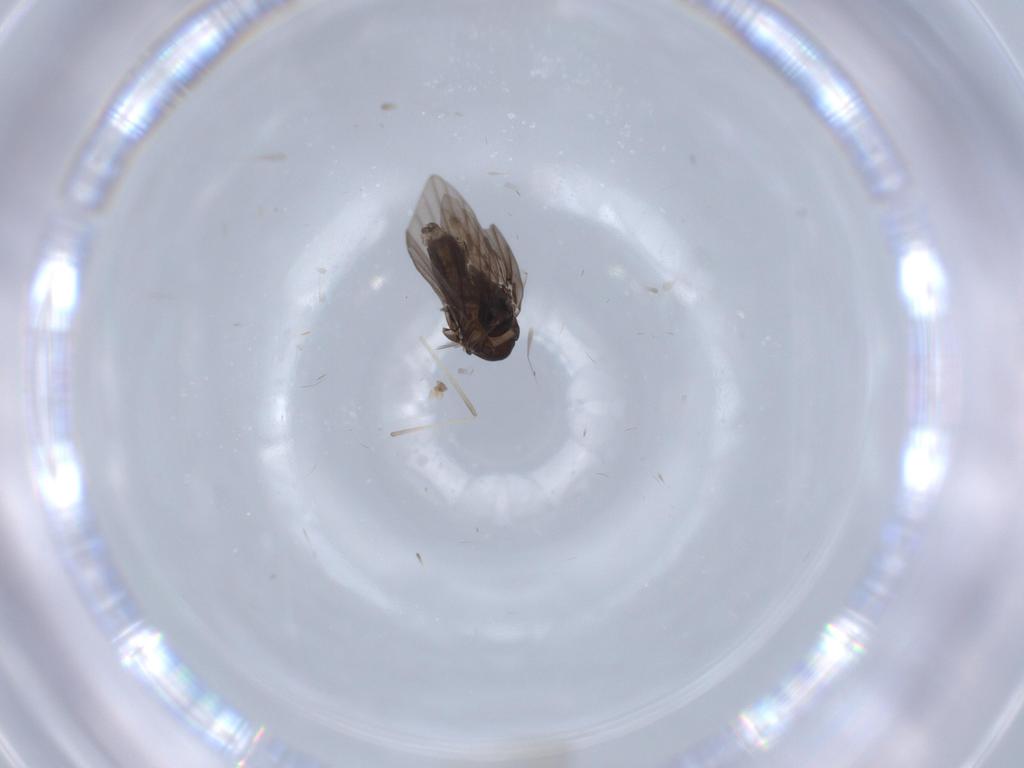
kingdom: Animalia
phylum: Arthropoda
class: Insecta
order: Diptera
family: Psychodidae
